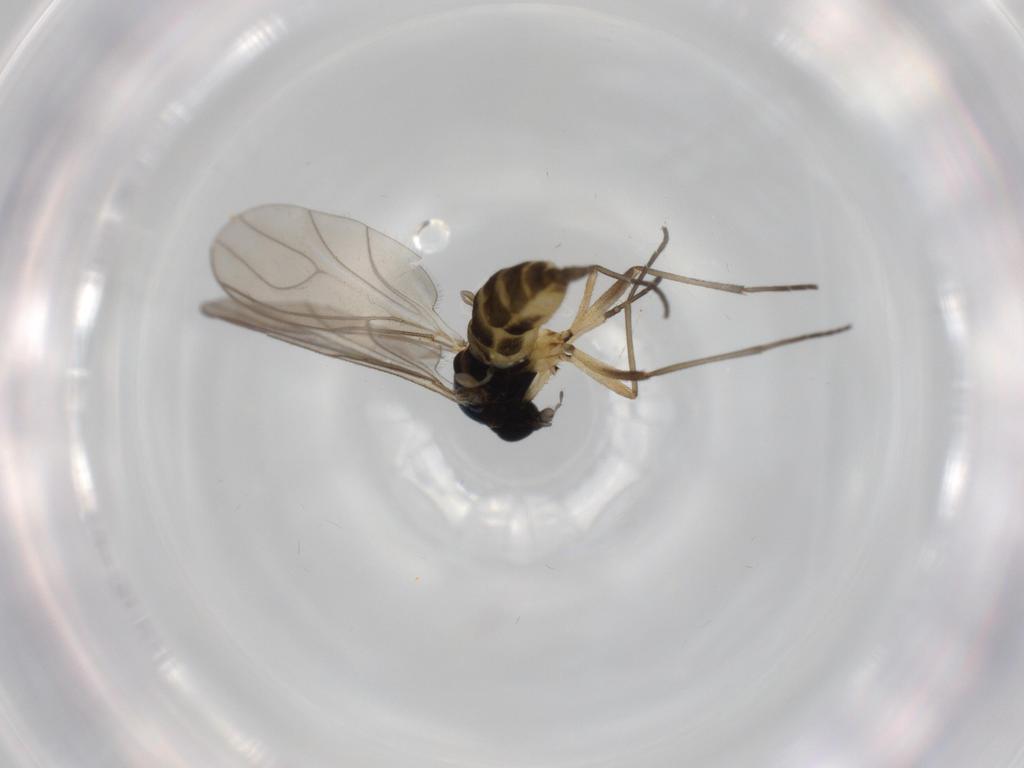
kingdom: Animalia
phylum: Arthropoda
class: Insecta
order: Diptera
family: Sciaridae
